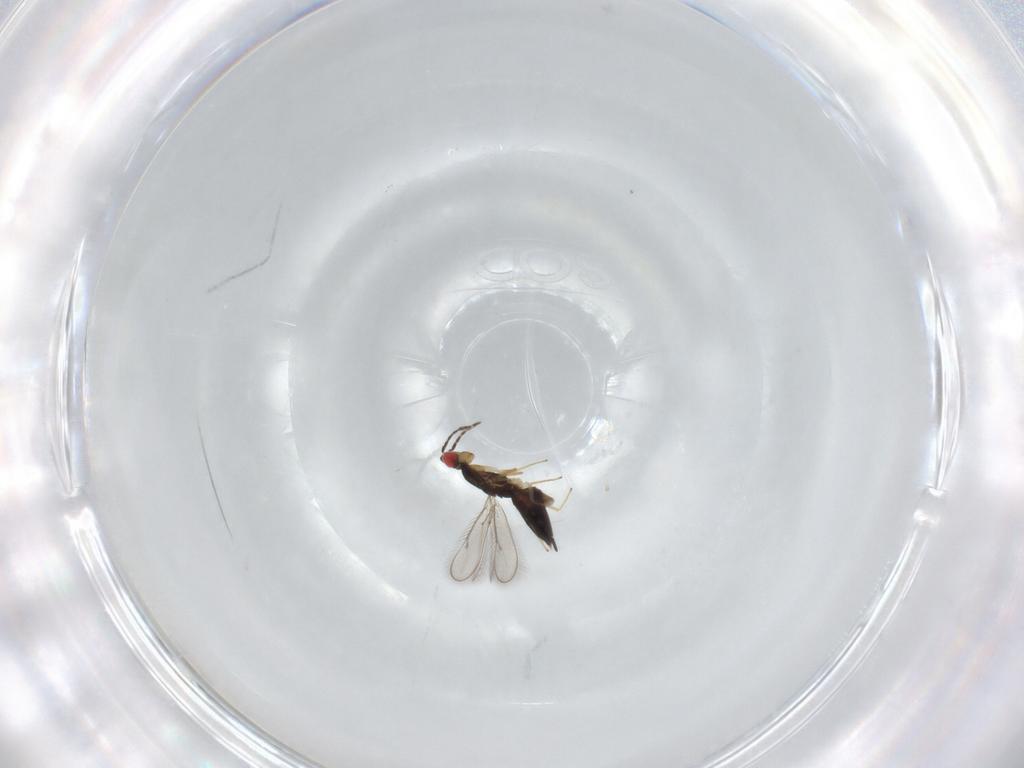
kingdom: Animalia
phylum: Arthropoda
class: Insecta
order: Hymenoptera
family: Eulophidae
